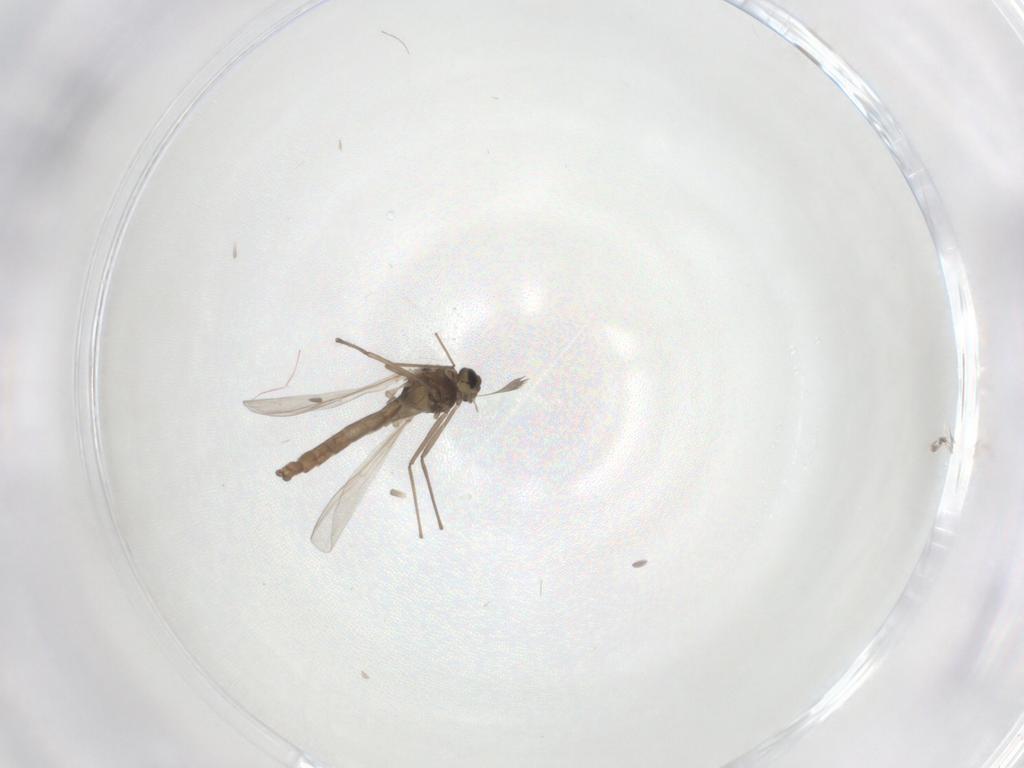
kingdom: Animalia
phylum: Arthropoda
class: Insecta
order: Diptera
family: Chironomidae
